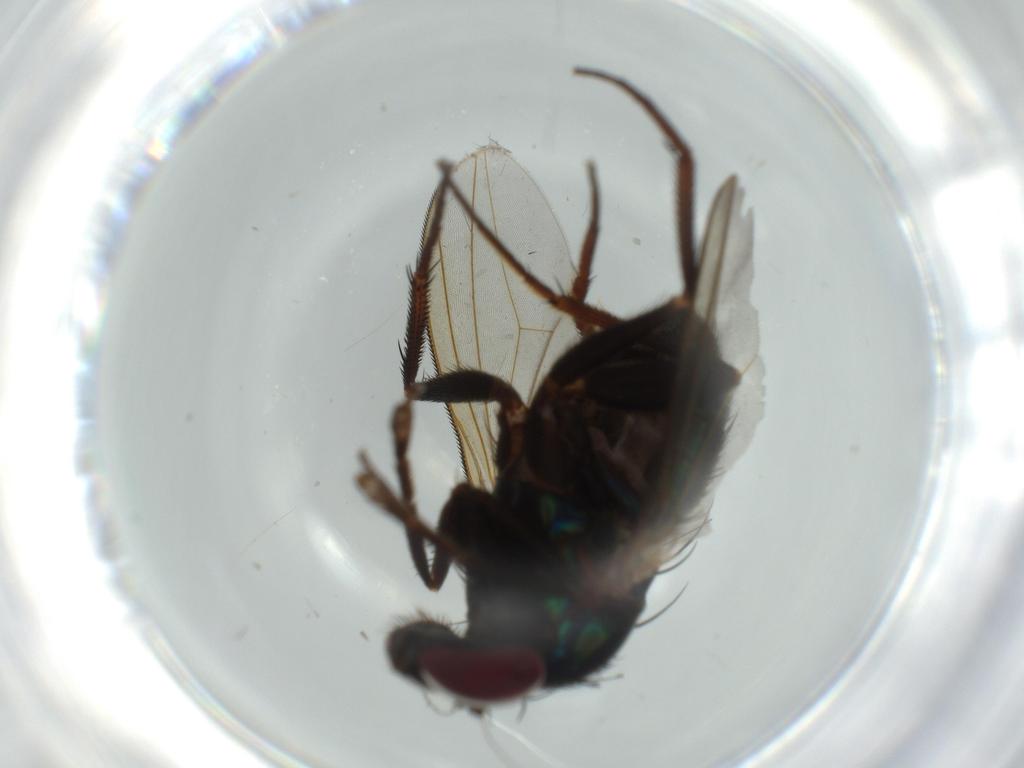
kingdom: Animalia
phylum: Arthropoda
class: Insecta
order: Diptera
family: Dolichopodidae
